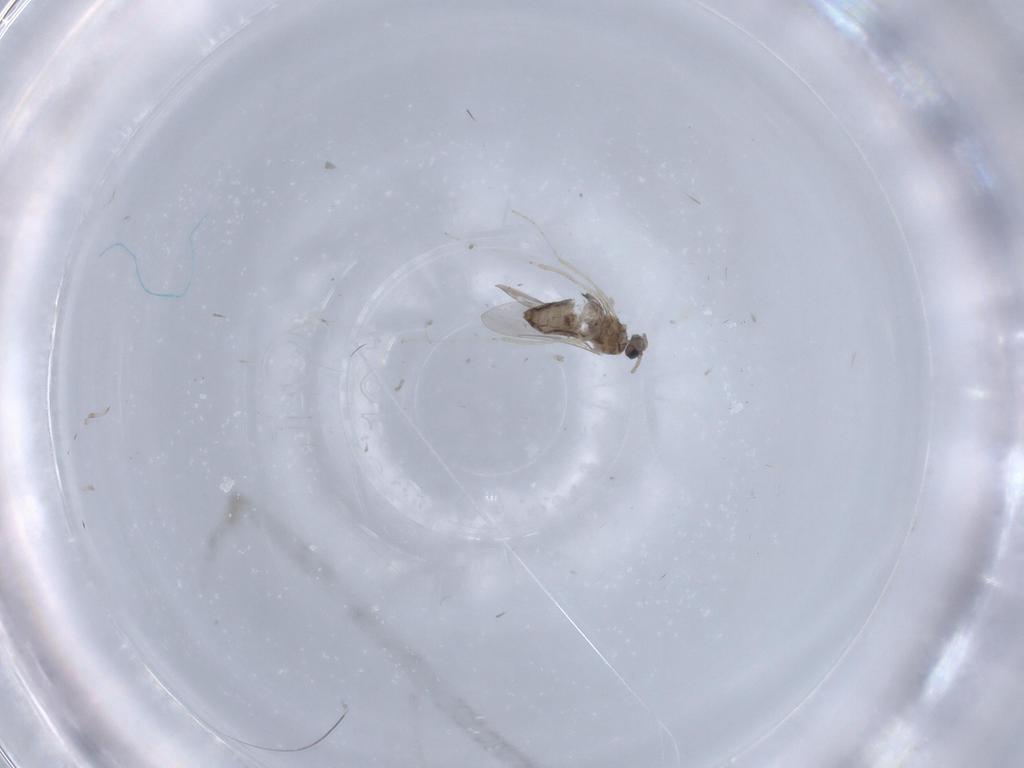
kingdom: Animalia
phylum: Arthropoda
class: Insecta
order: Diptera
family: Cecidomyiidae
